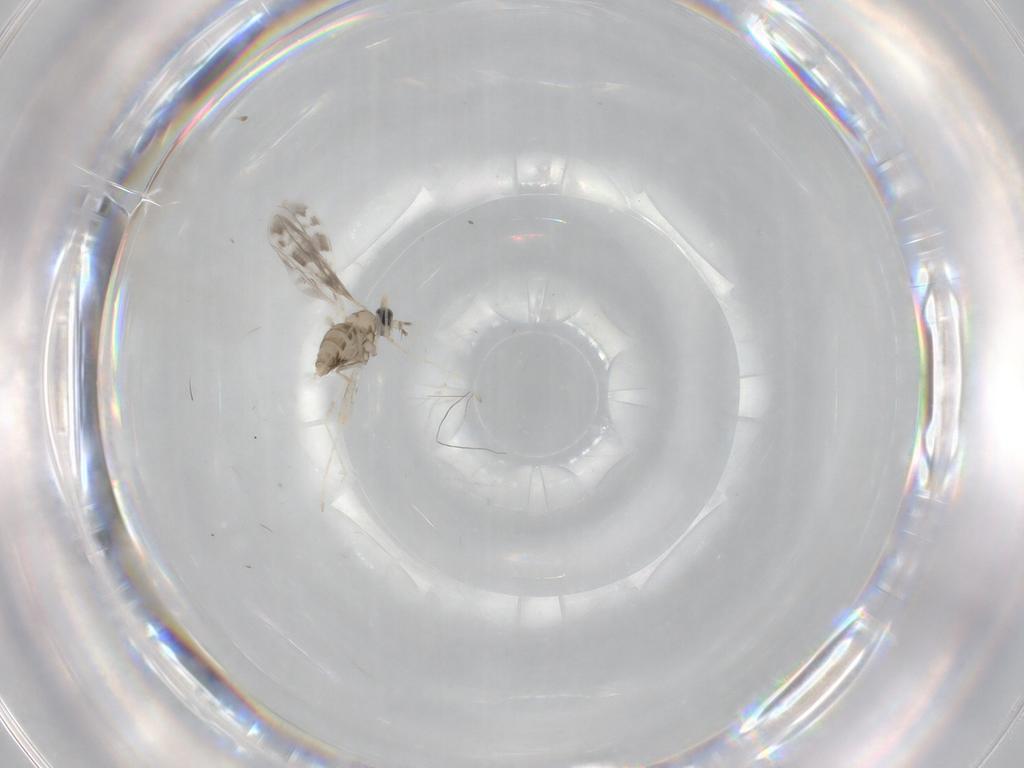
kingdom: Animalia
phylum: Arthropoda
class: Insecta
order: Diptera
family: Cecidomyiidae
